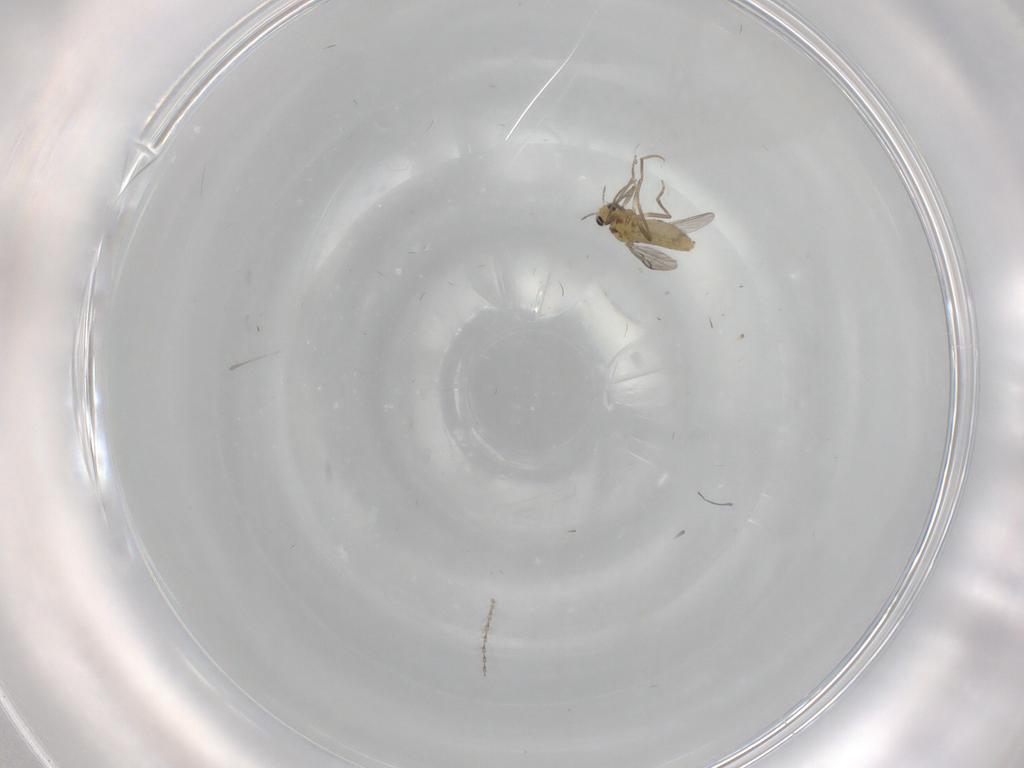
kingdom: Animalia
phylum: Arthropoda
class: Insecta
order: Diptera
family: Chironomidae
